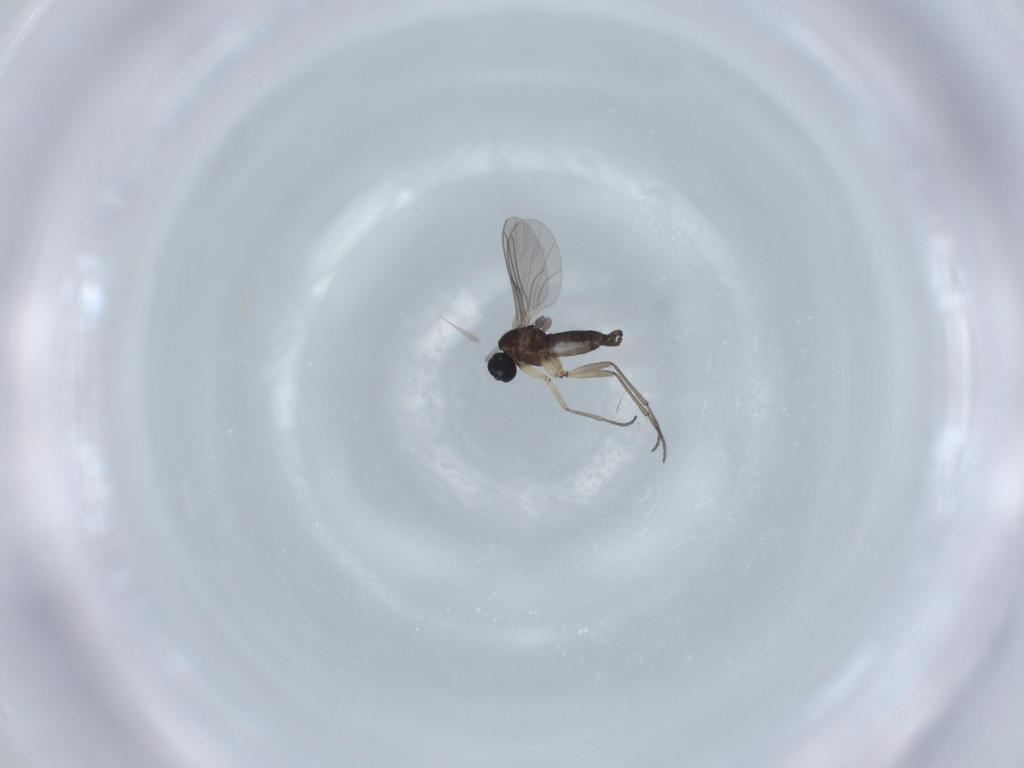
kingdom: Animalia
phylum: Arthropoda
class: Insecta
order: Diptera
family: Sciaridae
